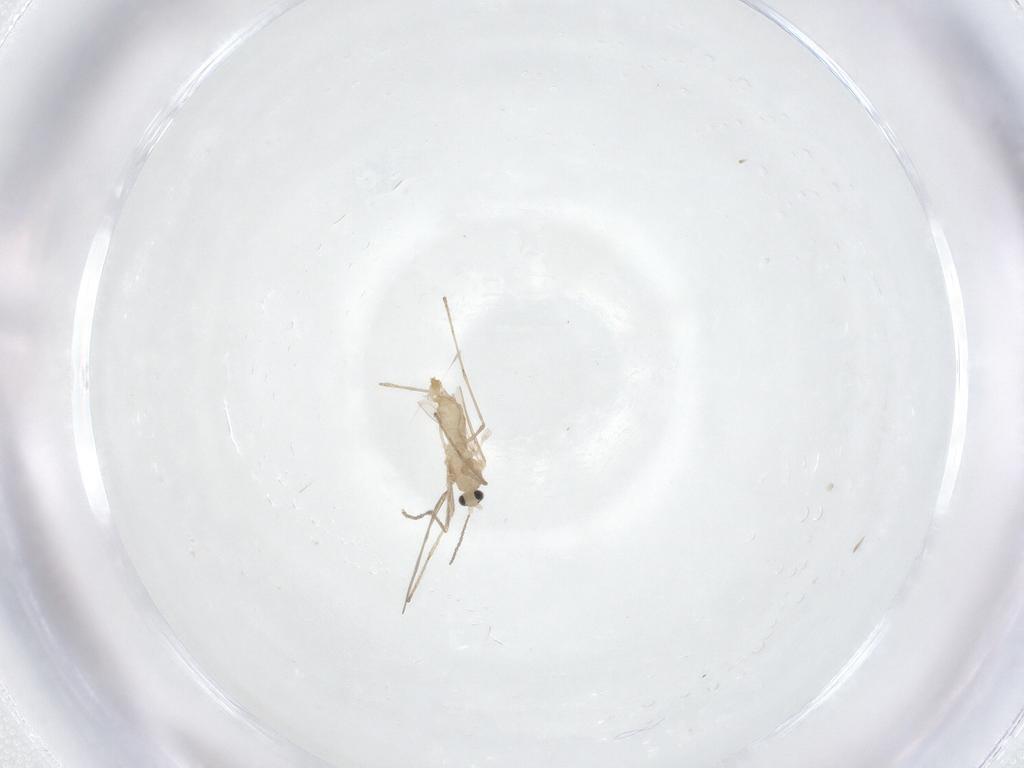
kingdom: Animalia
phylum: Arthropoda
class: Insecta
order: Diptera
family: Cecidomyiidae
